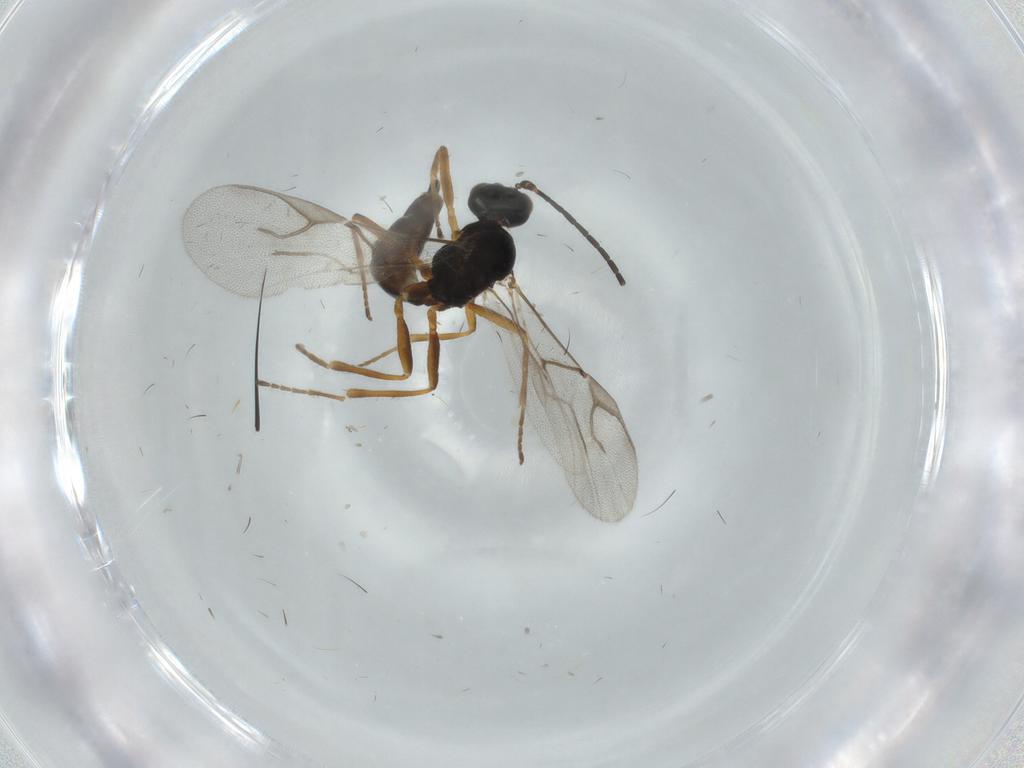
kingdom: Animalia
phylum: Arthropoda
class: Insecta
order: Hymenoptera
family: Braconidae
